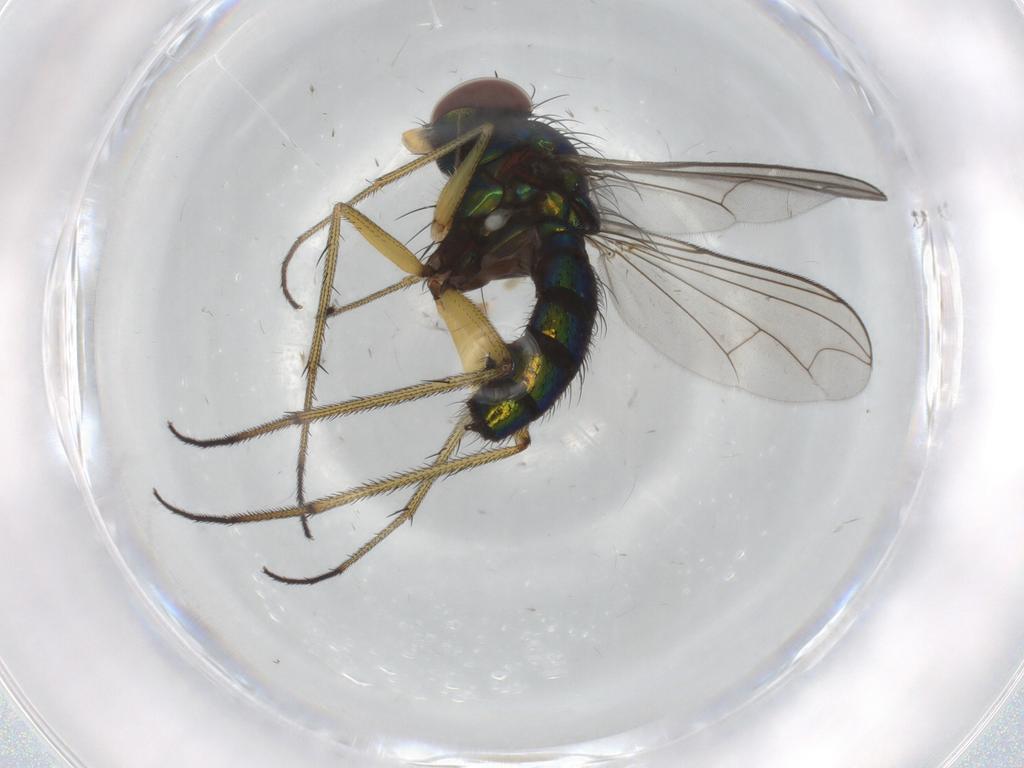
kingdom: Animalia
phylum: Arthropoda
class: Insecta
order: Diptera
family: Dolichopodidae
